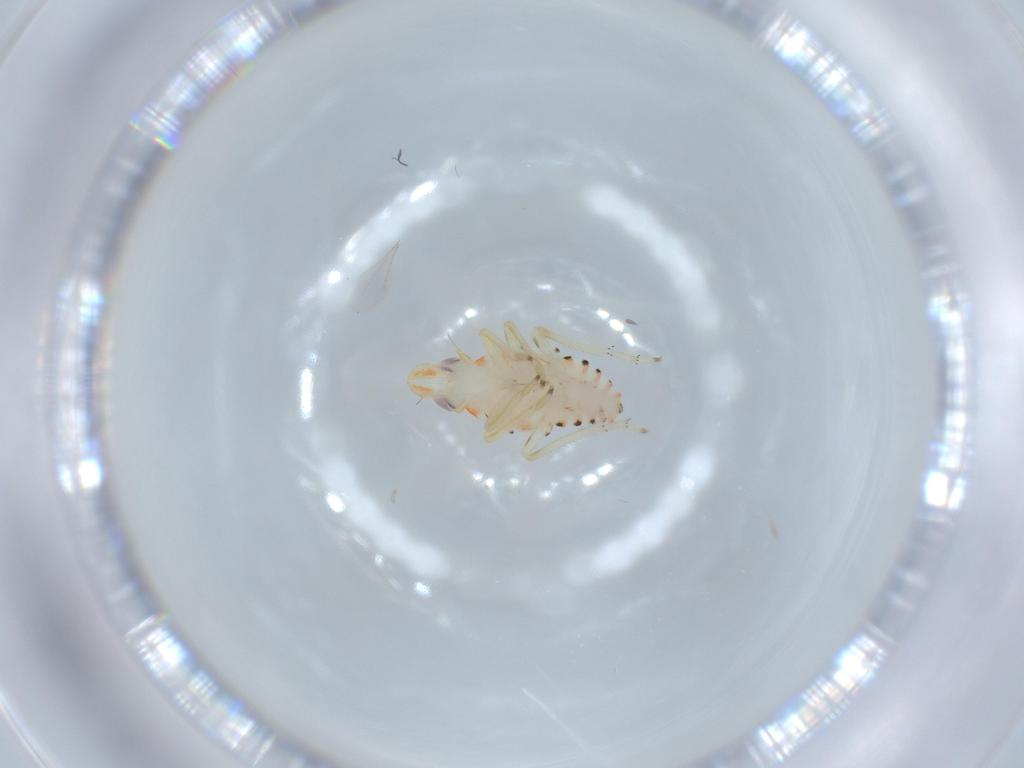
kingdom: Animalia
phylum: Arthropoda
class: Insecta
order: Hemiptera
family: Tropiduchidae
